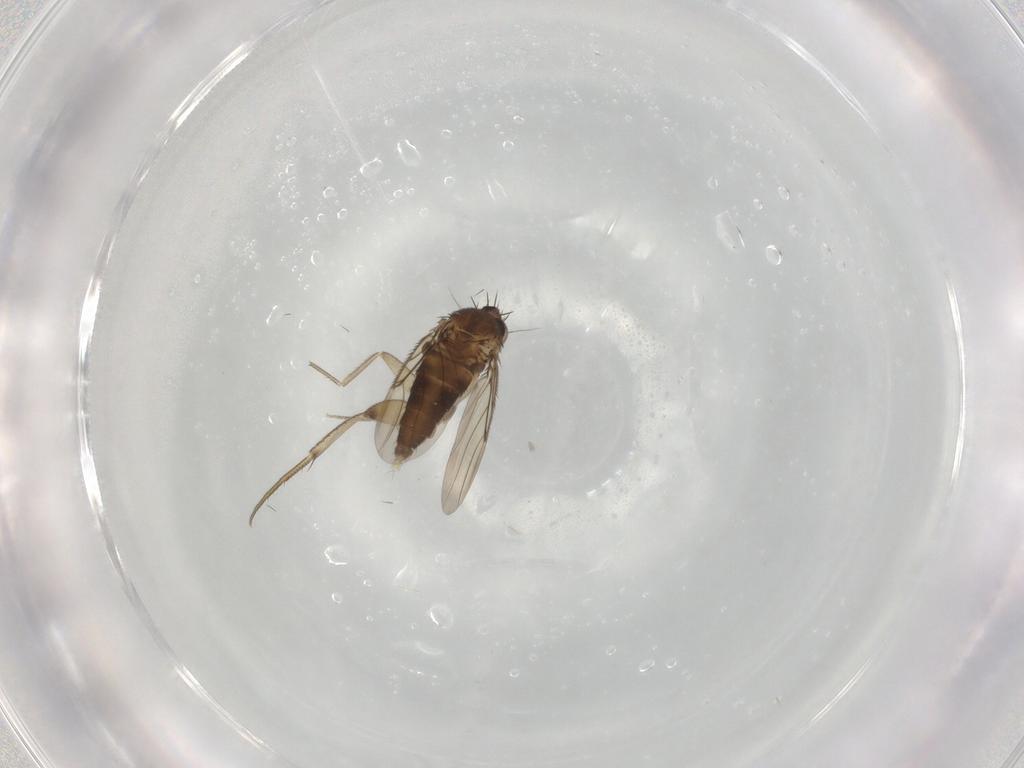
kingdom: Animalia
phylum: Arthropoda
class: Insecta
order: Diptera
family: Phoridae
